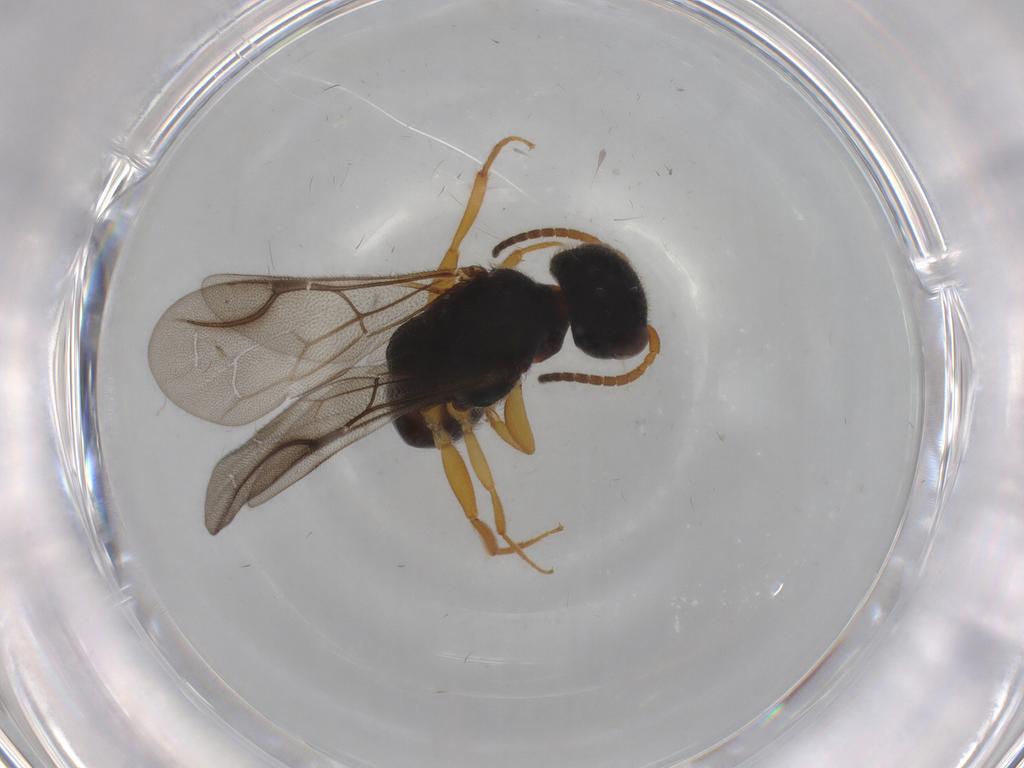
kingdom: Animalia
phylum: Arthropoda
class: Insecta
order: Hymenoptera
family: Bethylidae
